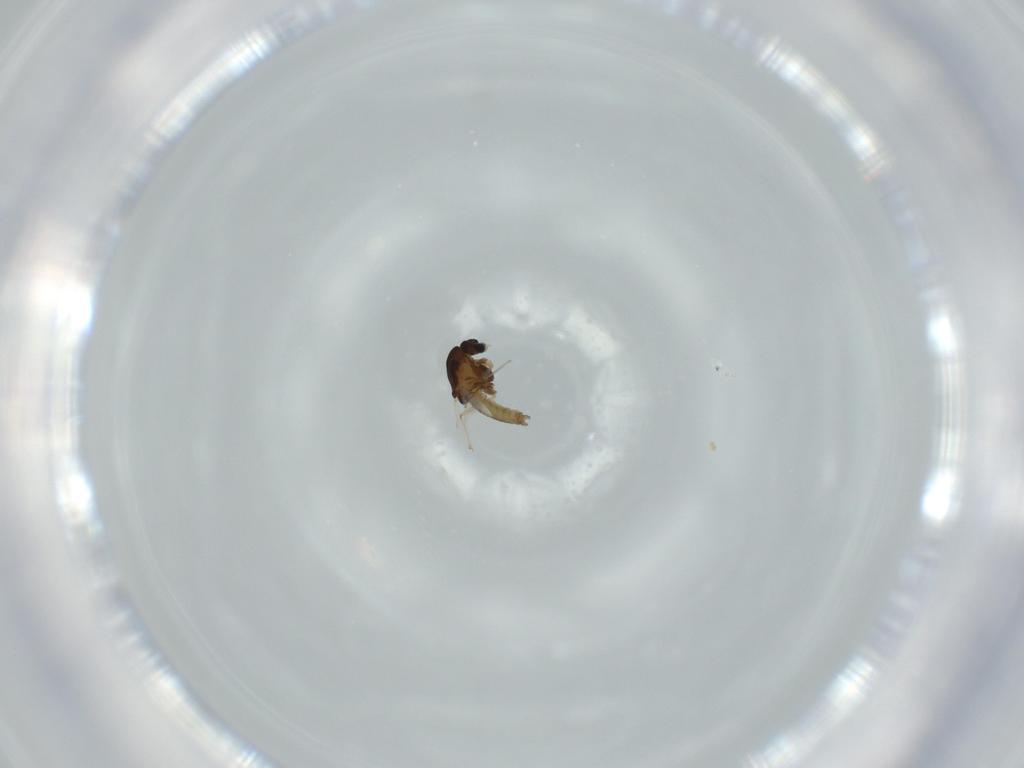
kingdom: Animalia
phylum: Arthropoda
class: Insecta
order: Diptera
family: Chironomidae
